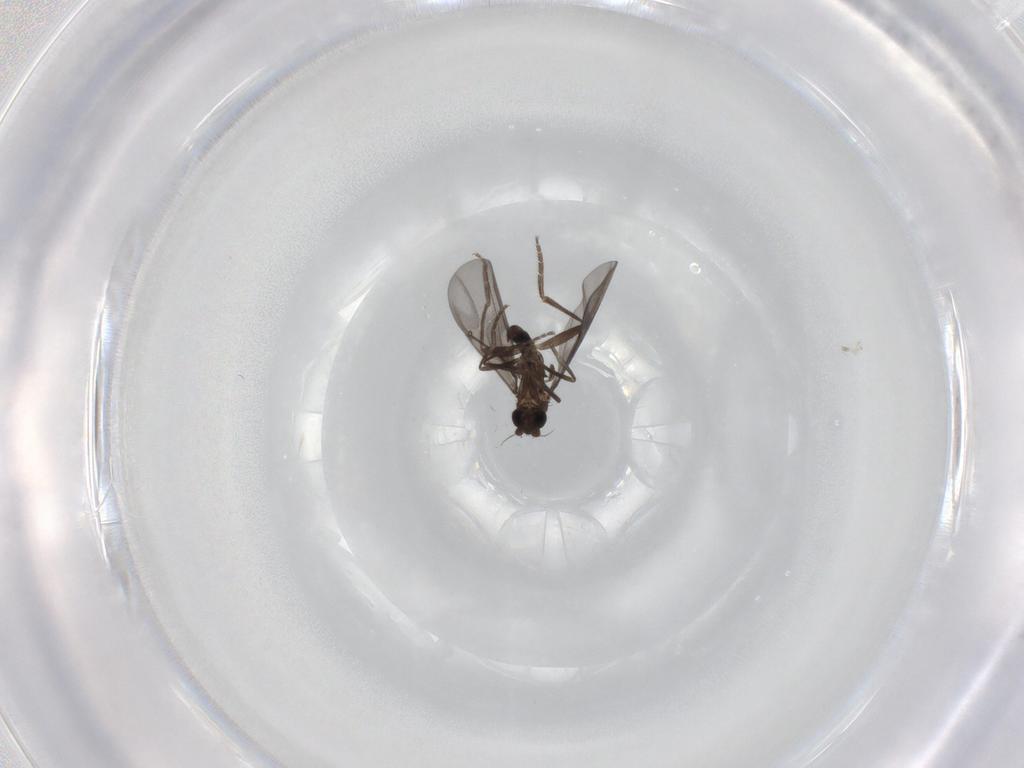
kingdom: Animalia
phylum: Arthropoda
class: Insecta
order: Diptera
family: Phoridae
